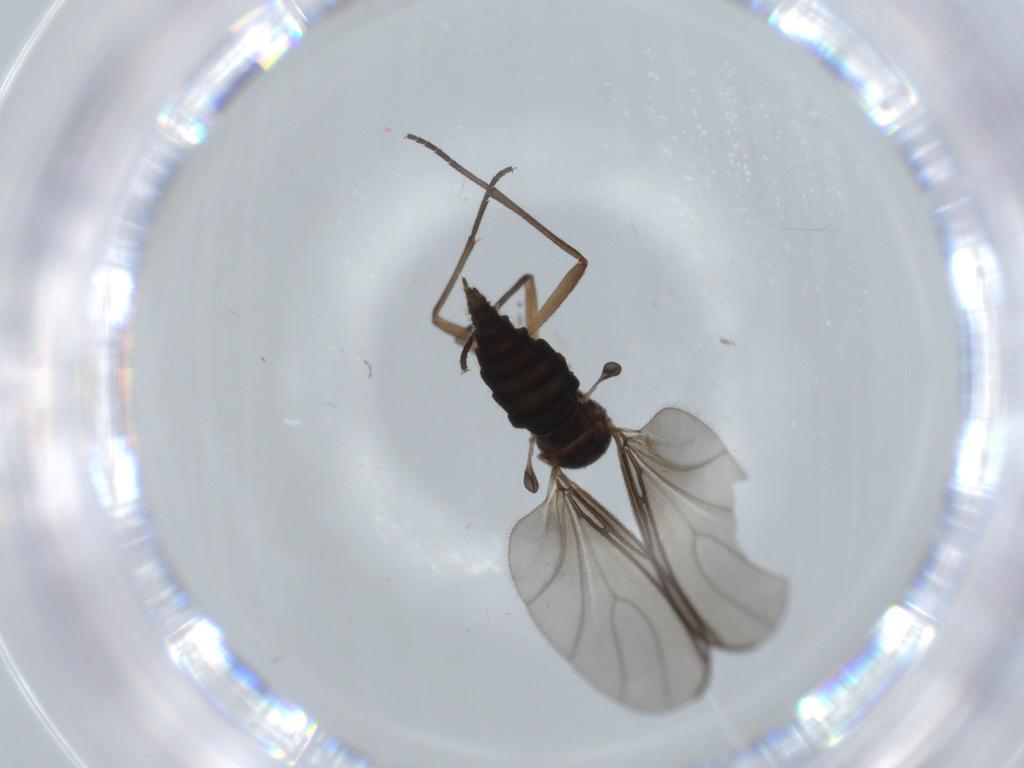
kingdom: Animalia
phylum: Arthropoda
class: Insecta
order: Diptera
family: Sciaridae
